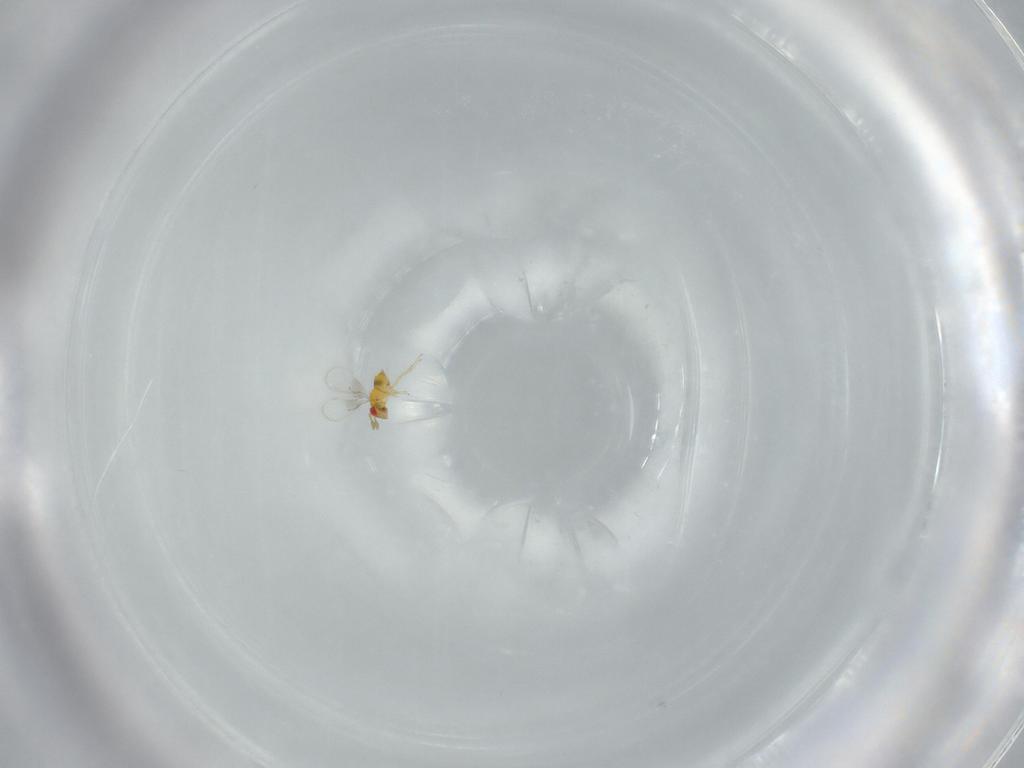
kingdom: Animalia
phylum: Arthropoda
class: Insecta
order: Hymenoptera
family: Trichogrammatidae
